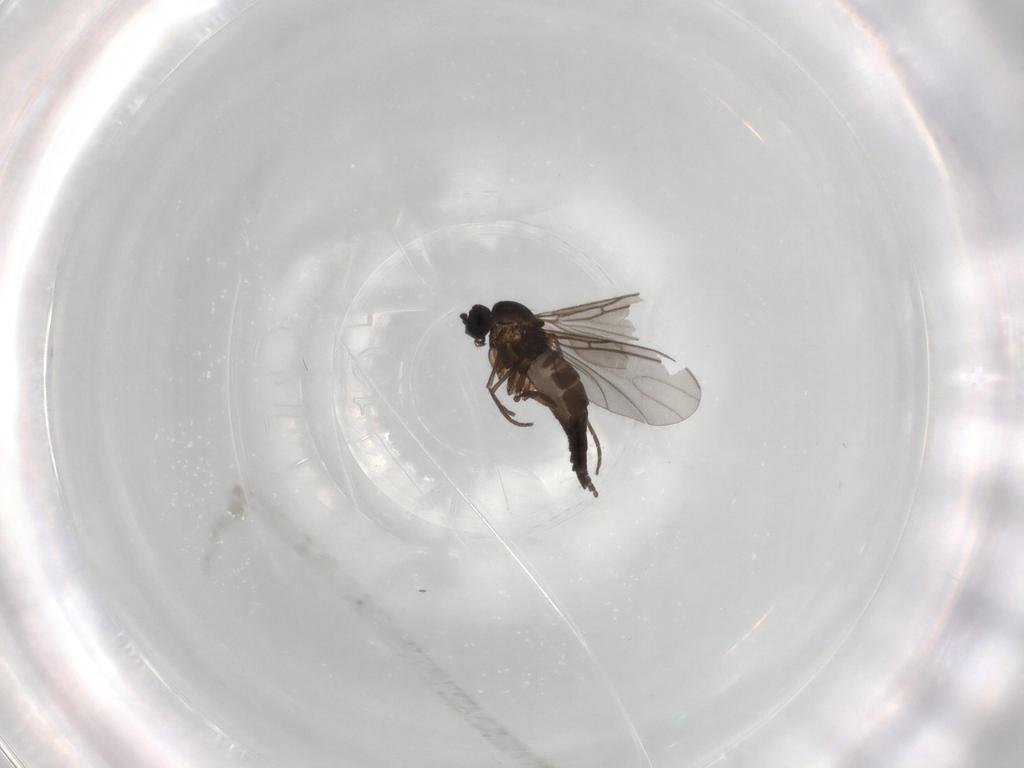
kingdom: Animalia
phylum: Arthropoda
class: Insecta
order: Diptera
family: Sciaridae
